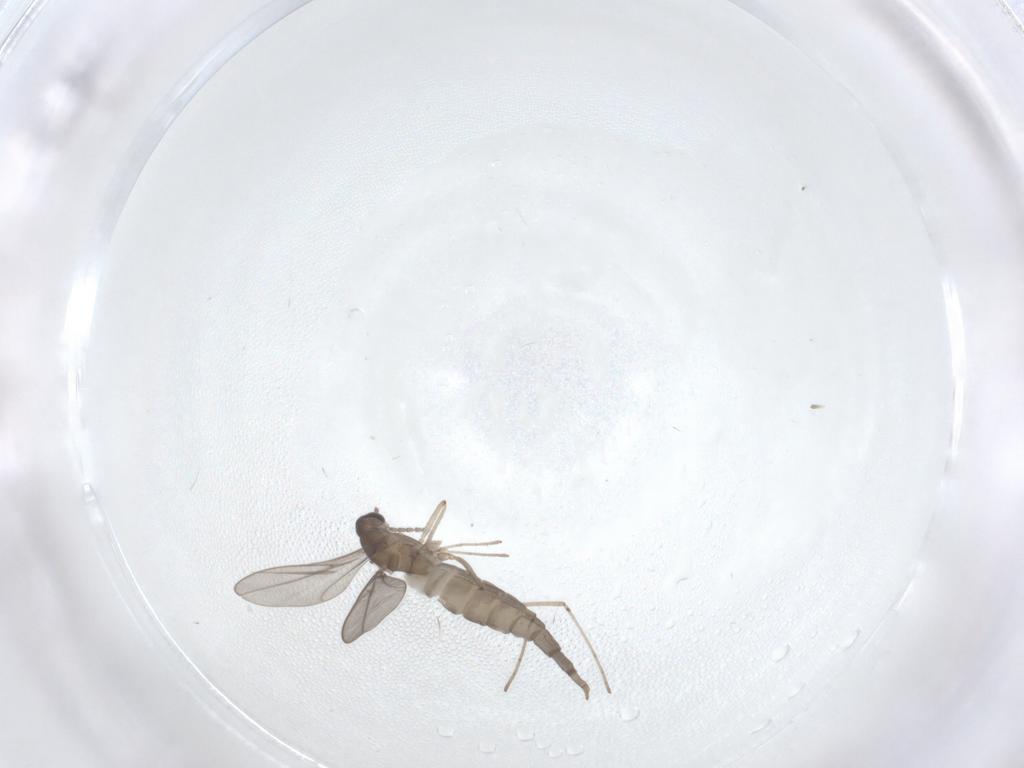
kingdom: Animalia
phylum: Arthropoda
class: Insecta
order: Diptera
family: Cecidomyiidae
